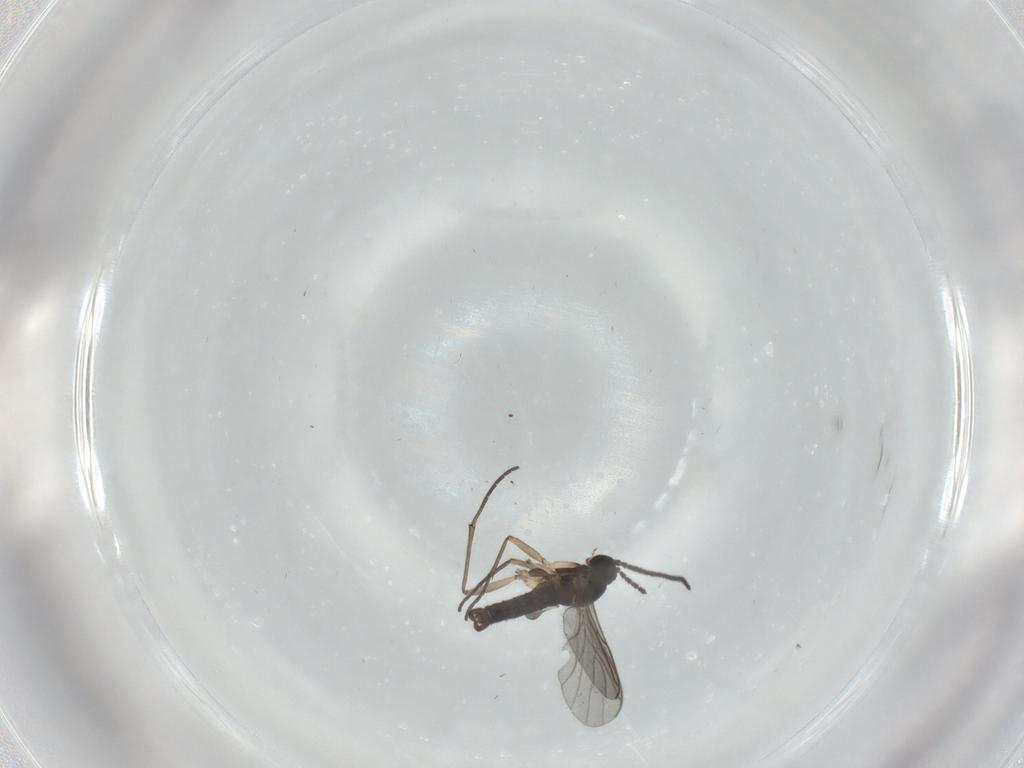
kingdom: Animalia
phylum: Arthropoda
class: Insecta
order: Diptera
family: Sciaridae
